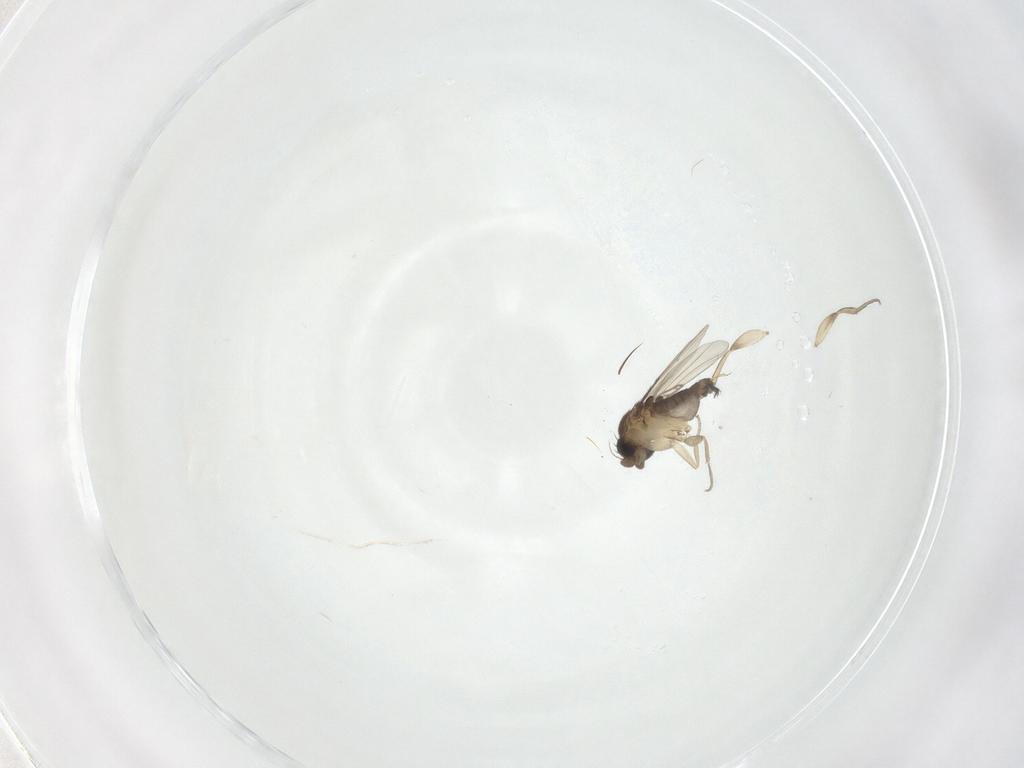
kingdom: Animalia
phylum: Arthropoda
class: Insecta
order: Diptera
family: Phoridae
